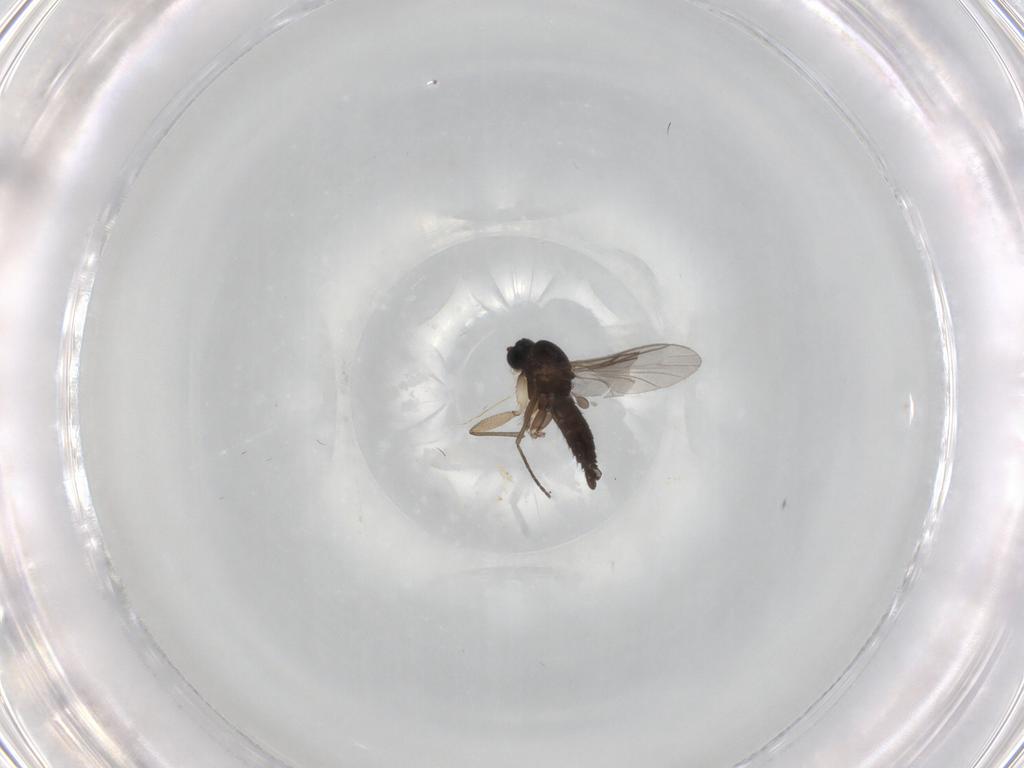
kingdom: Animalia
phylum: Arthropoda
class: Insecta
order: Diptera
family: Sciaridae
